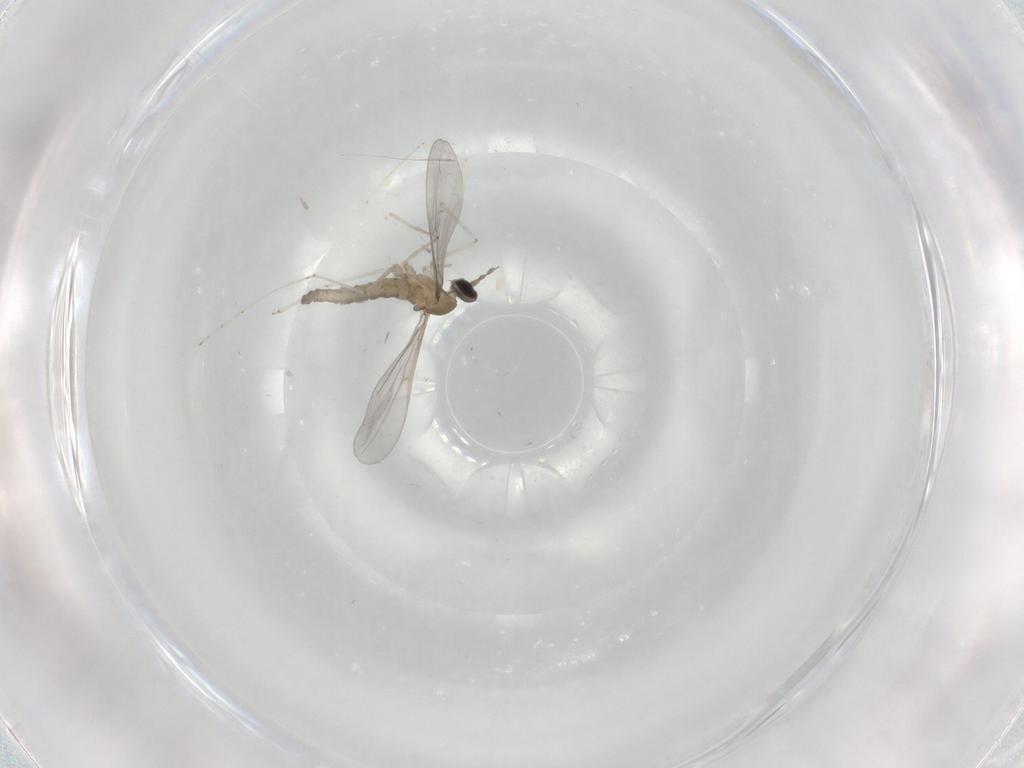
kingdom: Animalia
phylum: Arthropoda
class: Insecta
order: Diptera
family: Cecidomyiidae
